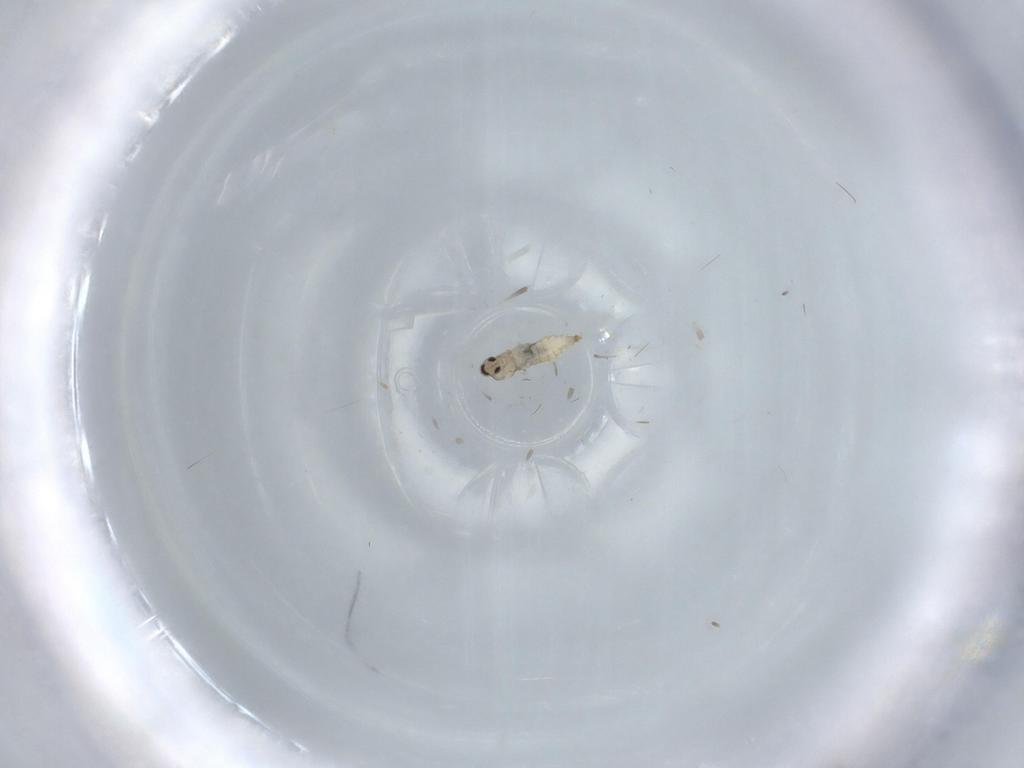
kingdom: Animalia
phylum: Arthropoda
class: Insecta
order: Diptera
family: Cecidomyiidae
